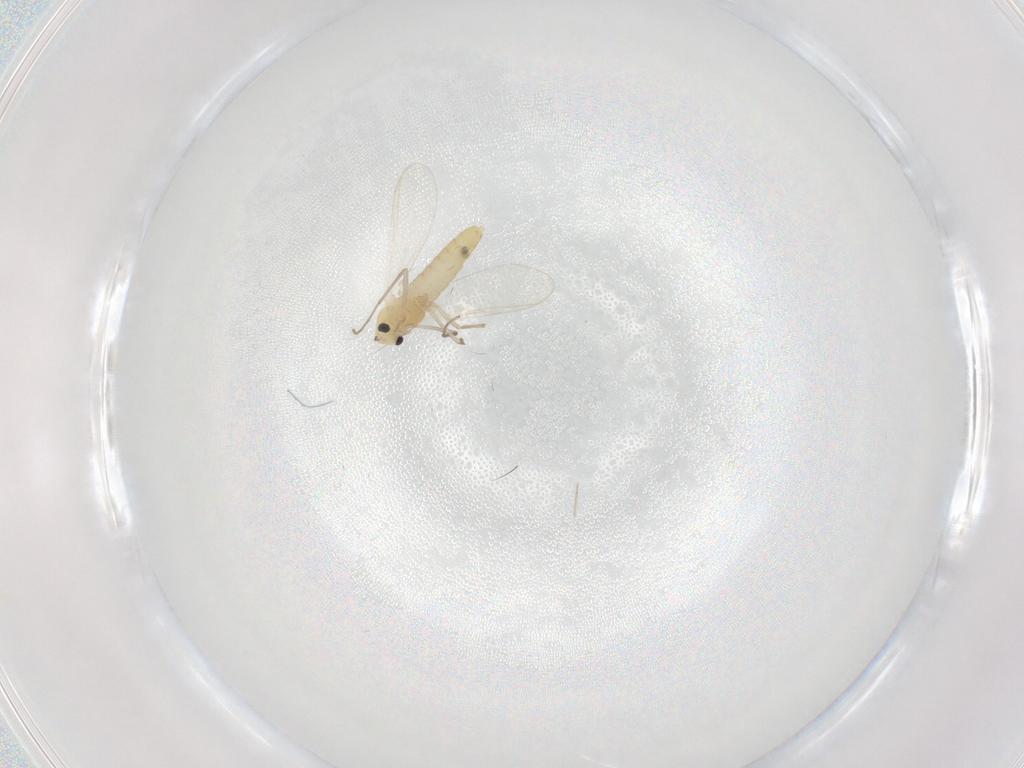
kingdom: Animalia
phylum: Arthropoda
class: Insecta
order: Diptera
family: Chironomidae
